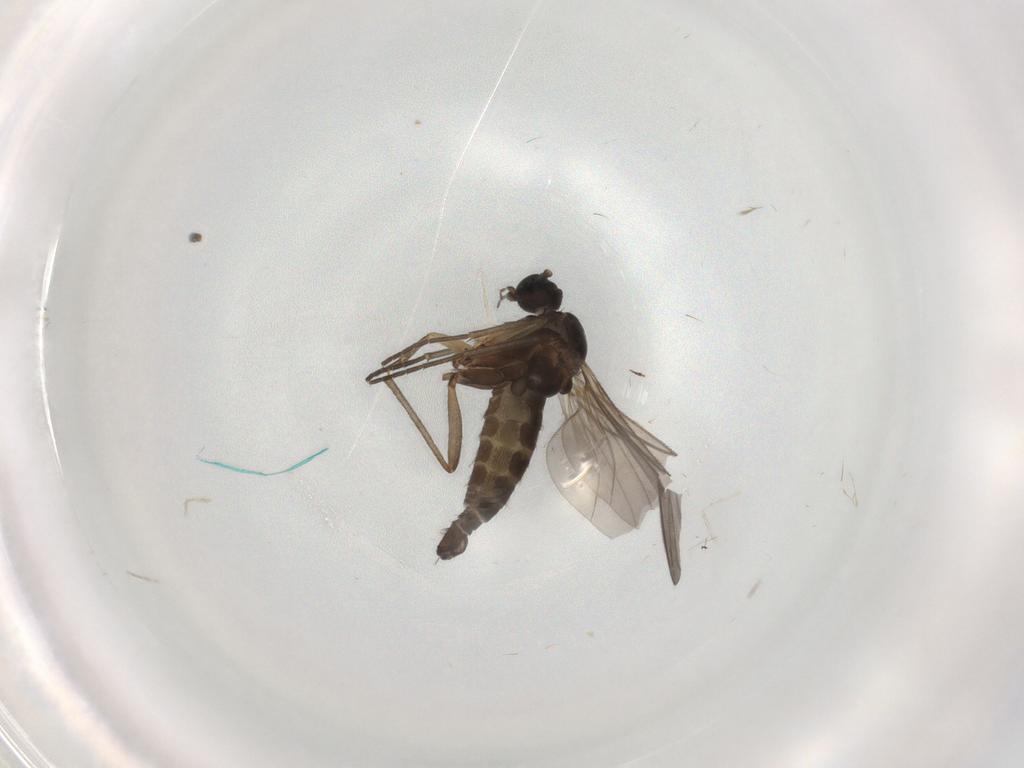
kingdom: Animalia
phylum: Arthropoda
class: Insecta
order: Diptera
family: Sciaridae
